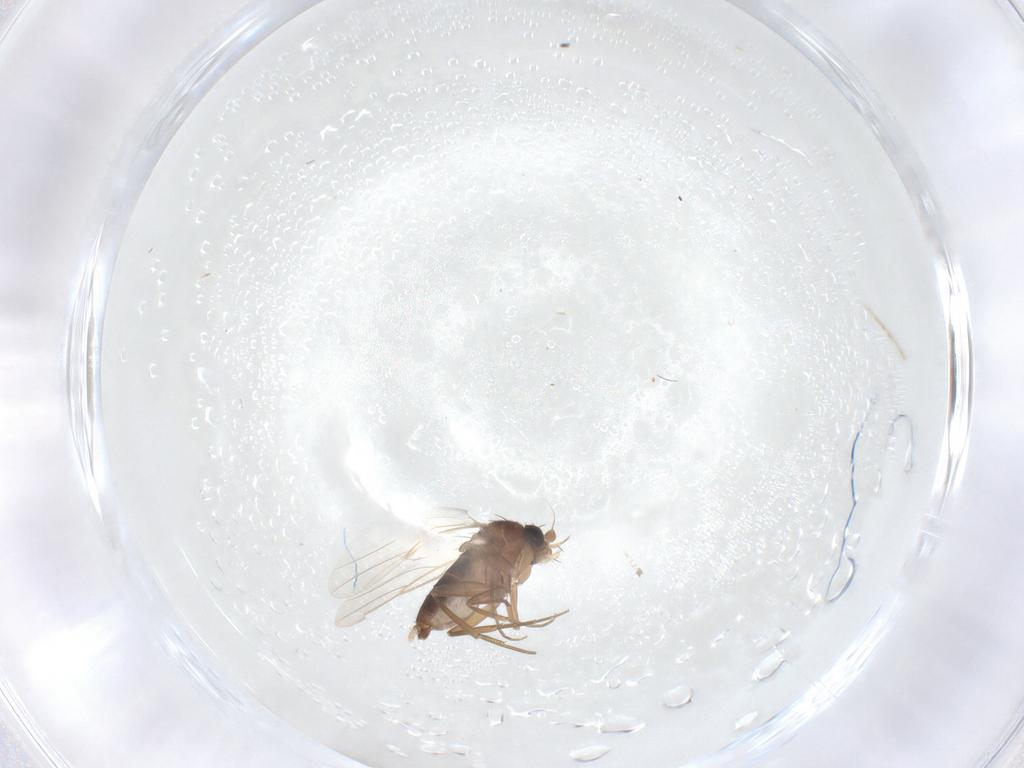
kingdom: Animalia
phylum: Arthropoda
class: Insecta
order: Diptera
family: Phoridae
